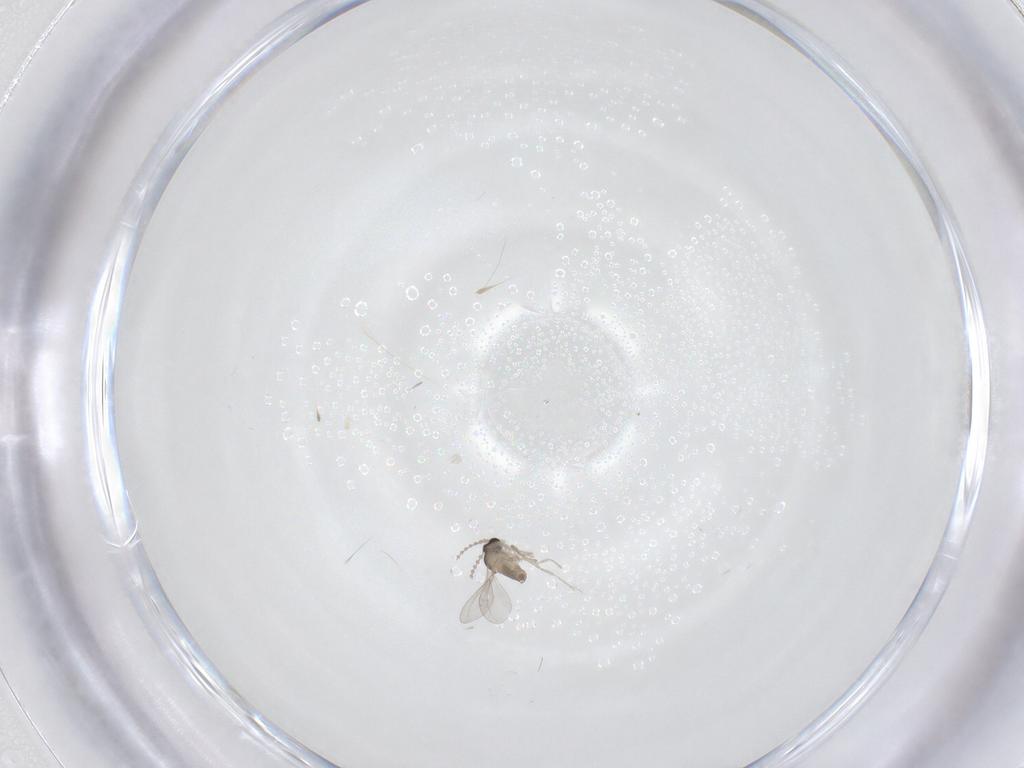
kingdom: Animalia
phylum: Arthropoda
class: Insecta
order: Diptera
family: Cecidomyiidae
